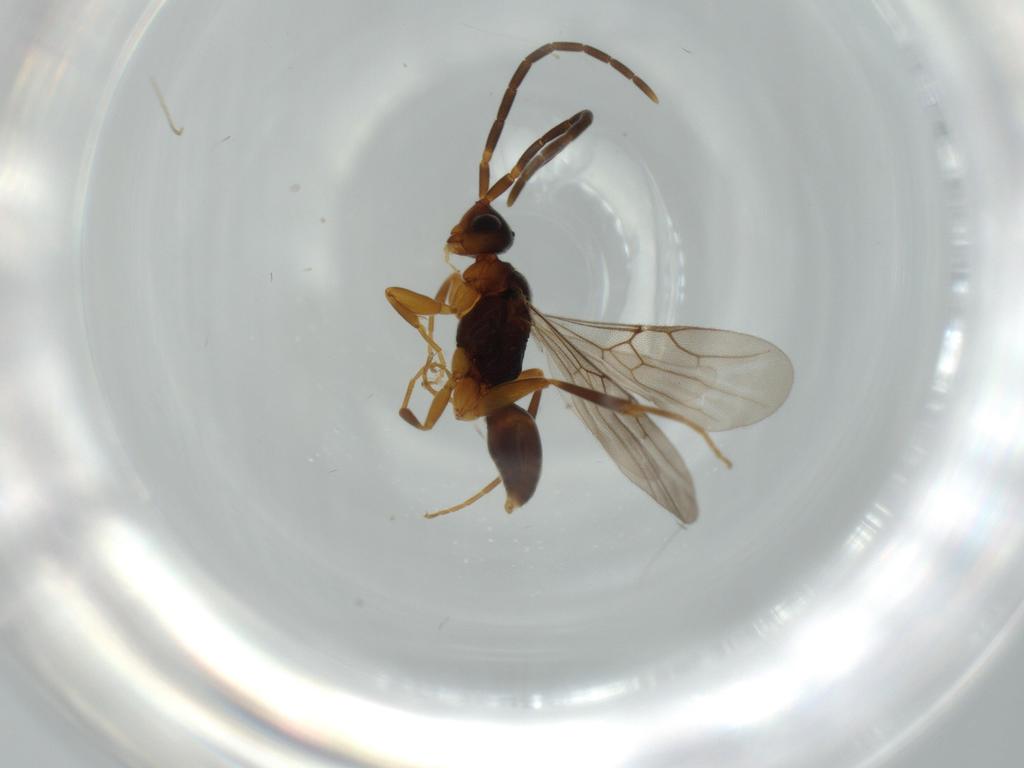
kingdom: Animalia
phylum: Arthropoda
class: Insecta
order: Hymenoptera
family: Embolemidae
